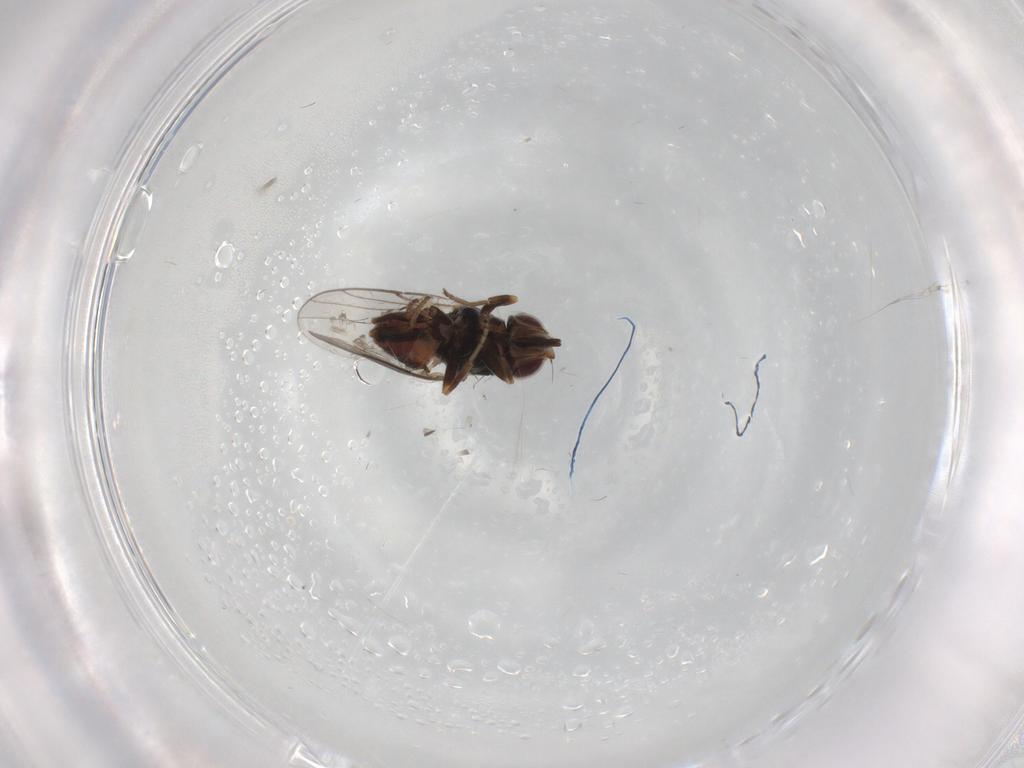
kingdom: Animalia
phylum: Arthropoda
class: Insecta
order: Diptera
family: Chloropidae
